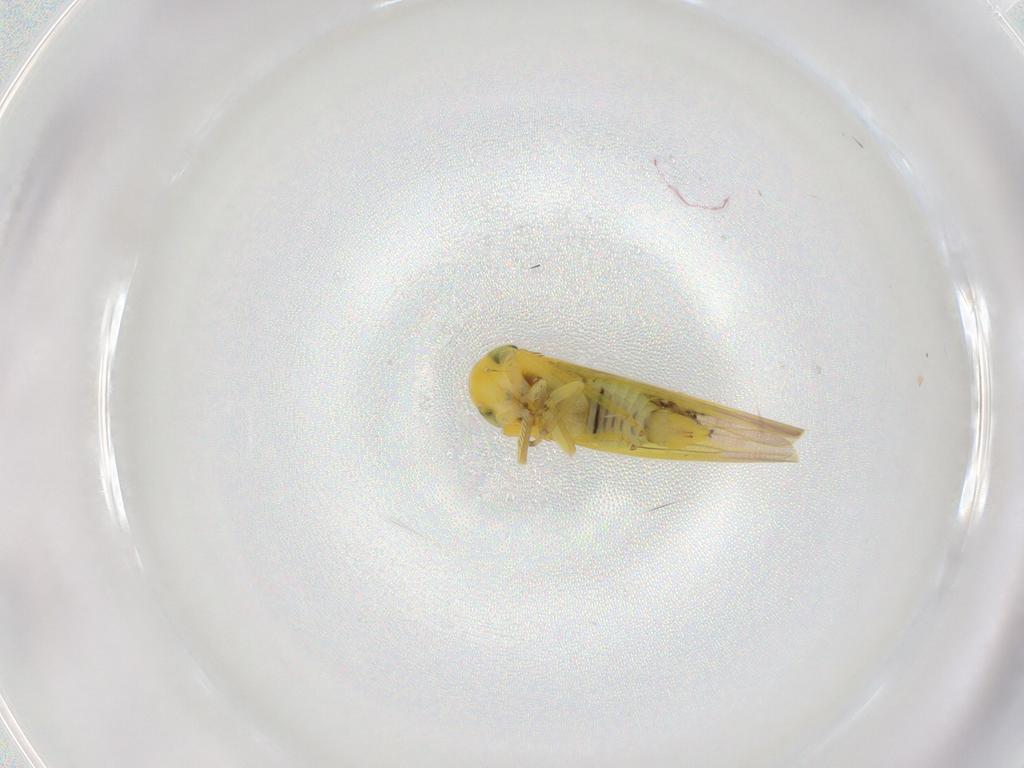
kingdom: Animalia
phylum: Arthropoda
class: Insecta
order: Hemiptera
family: Cicadellidae
